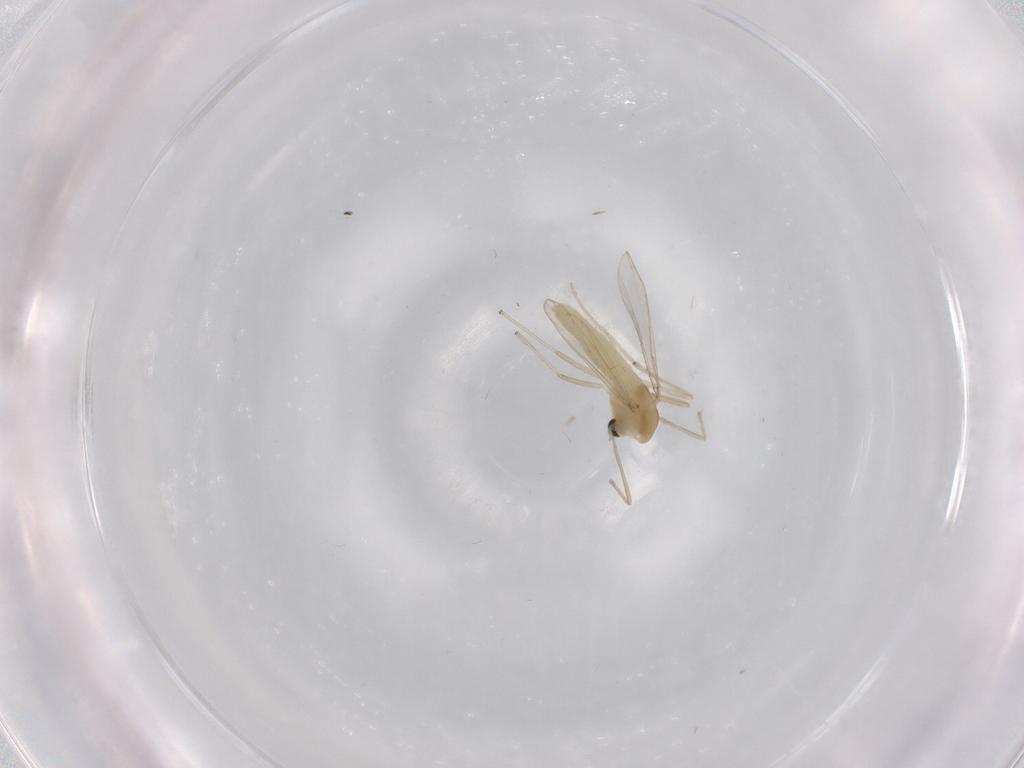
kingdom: Animalia
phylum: Arthropoda
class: Insecta
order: Diptera
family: Chironomidae
